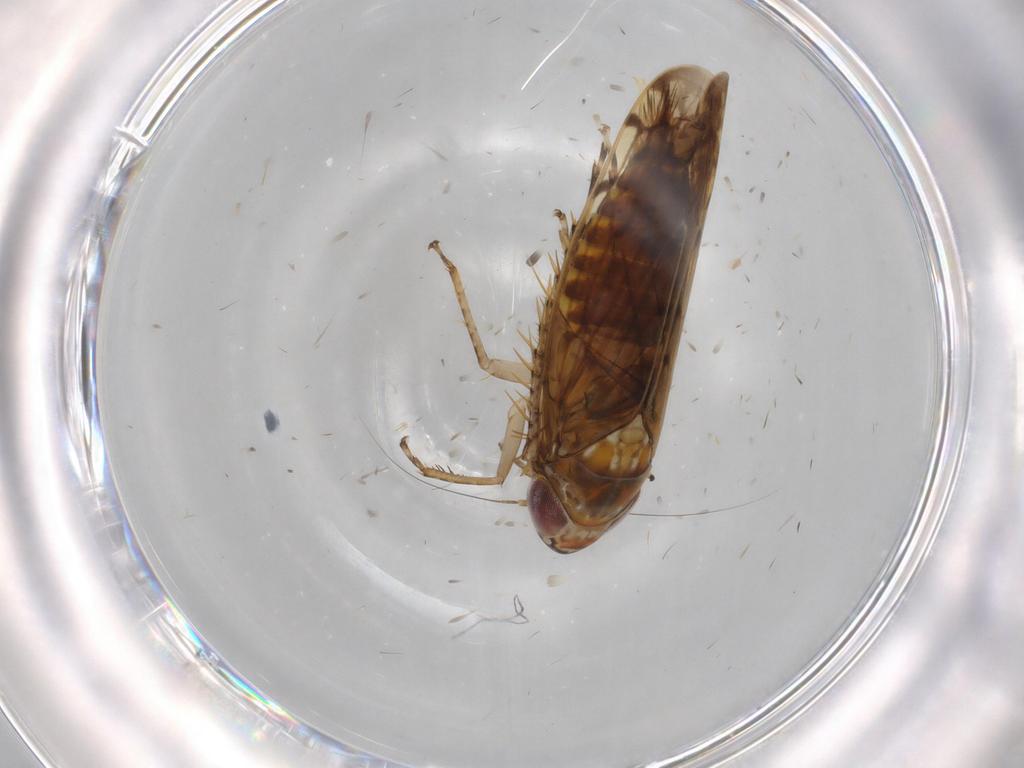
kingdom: Animalia
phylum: Arthropoda
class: Insecta
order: Hemiptera
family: Cicadellidae
